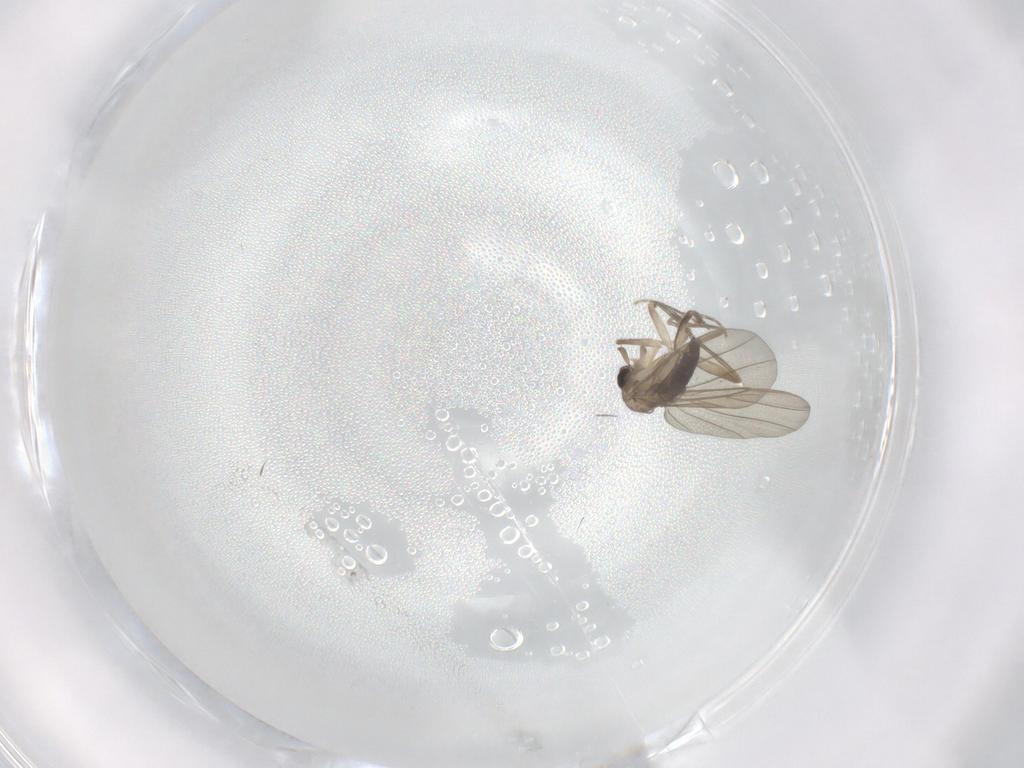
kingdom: Animalia
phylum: Arthropoda
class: Insecta
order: Diptera
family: Phoridae
